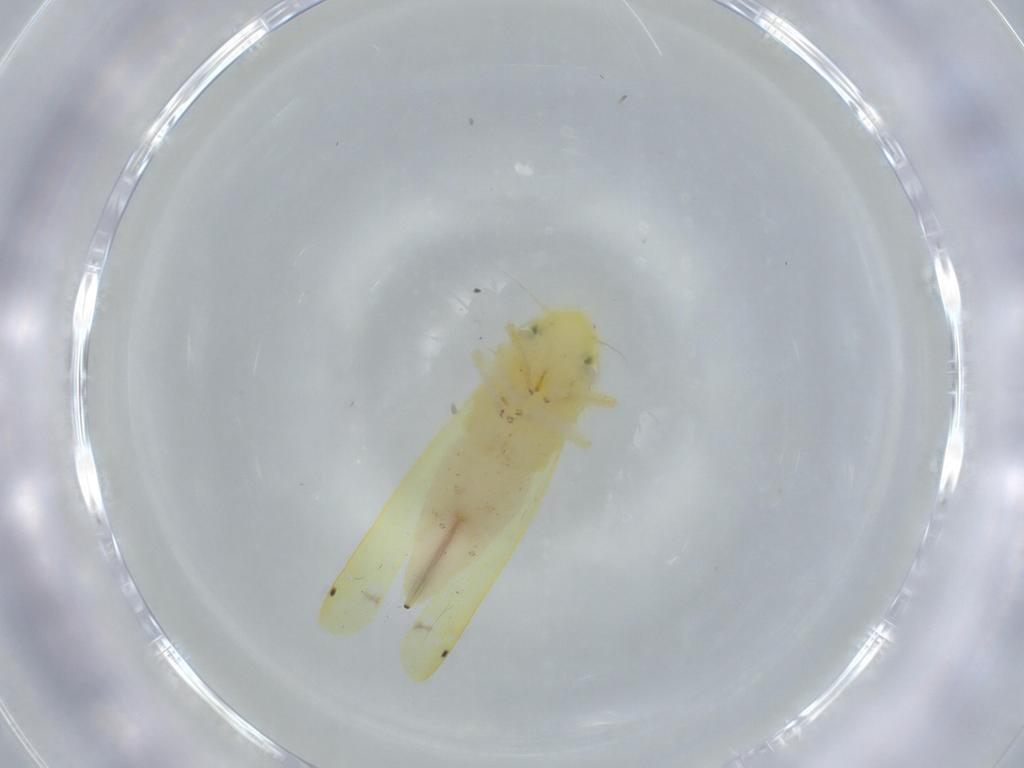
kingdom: Animalia
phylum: Arthropoda
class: Insecta
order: Hemiptera
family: Cicadellidae
